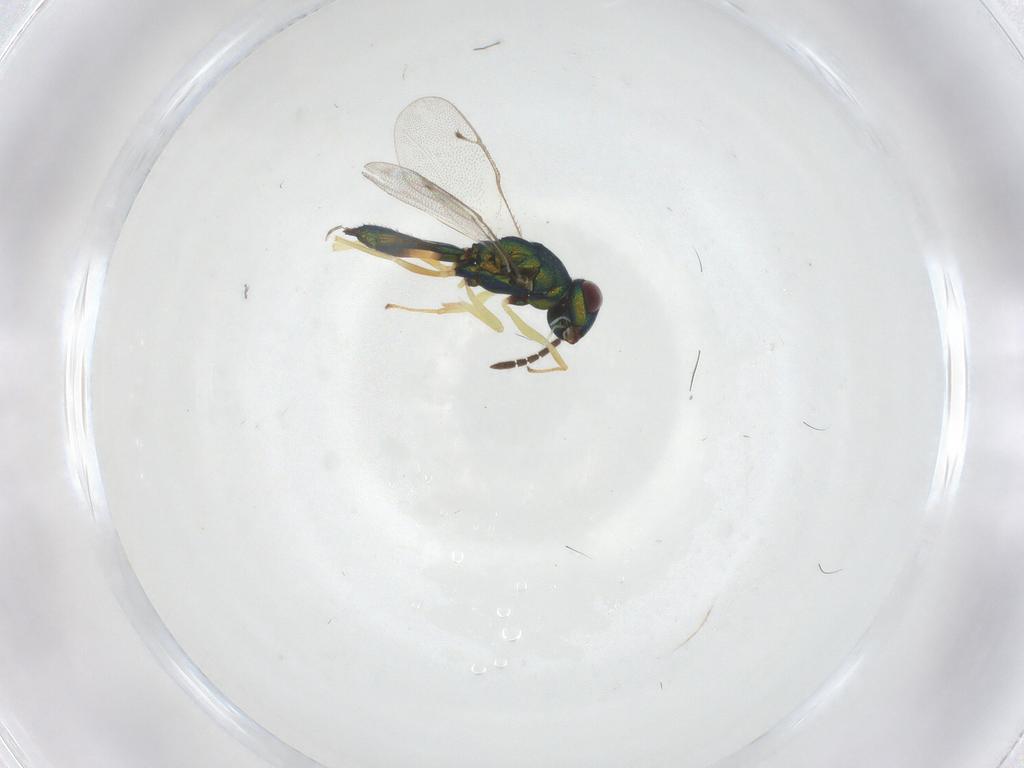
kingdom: Animalia
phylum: Arthropoda
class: Insecta
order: Hymenoptera
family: Pteromalidae
